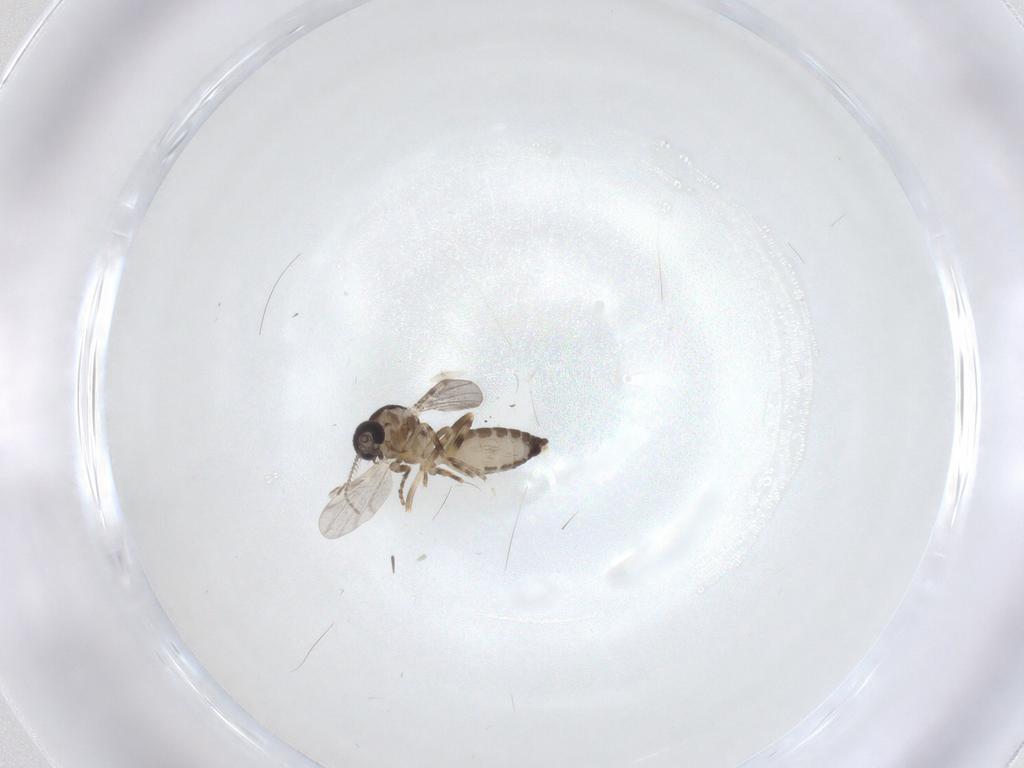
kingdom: Animalia
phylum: Arthropoda
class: Insecta
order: Diptera
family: Ceratopogonidae
